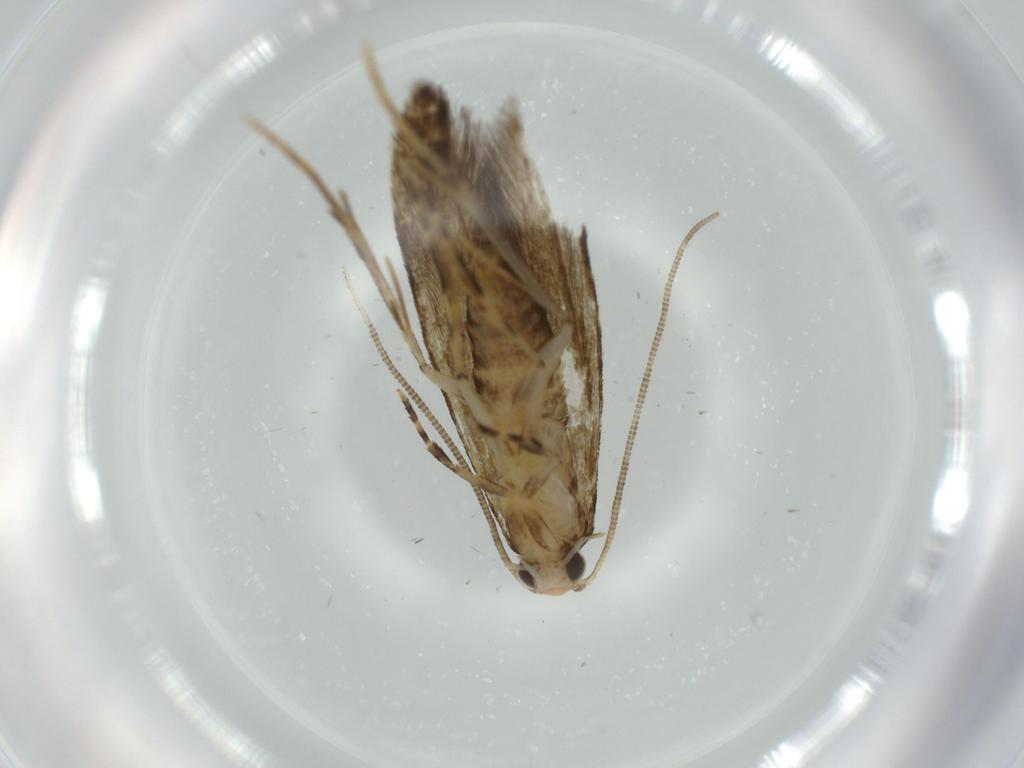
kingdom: Animalia
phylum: Arthropoda
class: Insecta
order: Lepidoptera
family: Meessiidae
